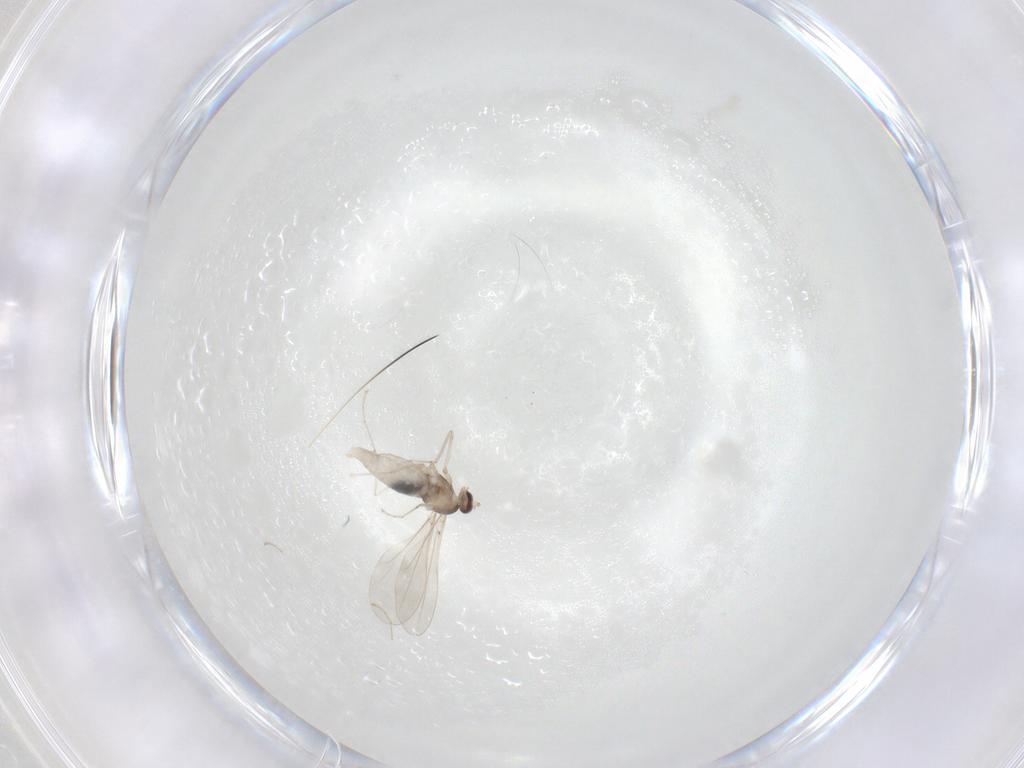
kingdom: Animalia
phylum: Arthropoda
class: Insecta
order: Diptera
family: Cecidomyiidae
